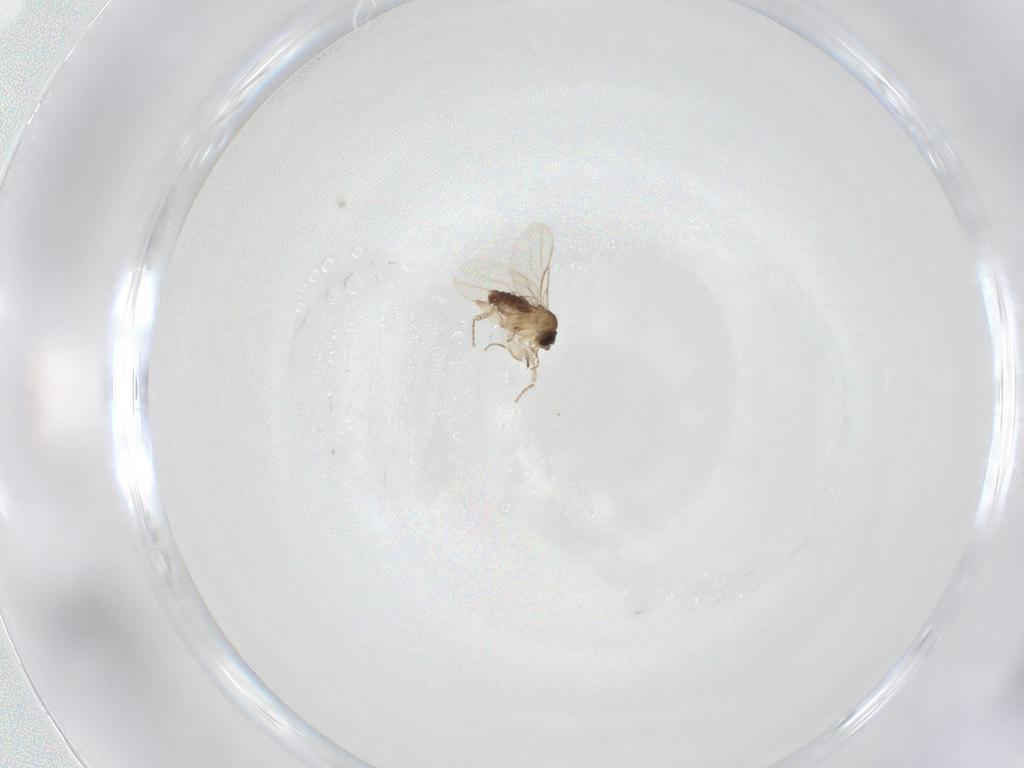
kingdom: Animalia
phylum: Arthropoda
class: Insecta
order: Diptera
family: Phoridae
